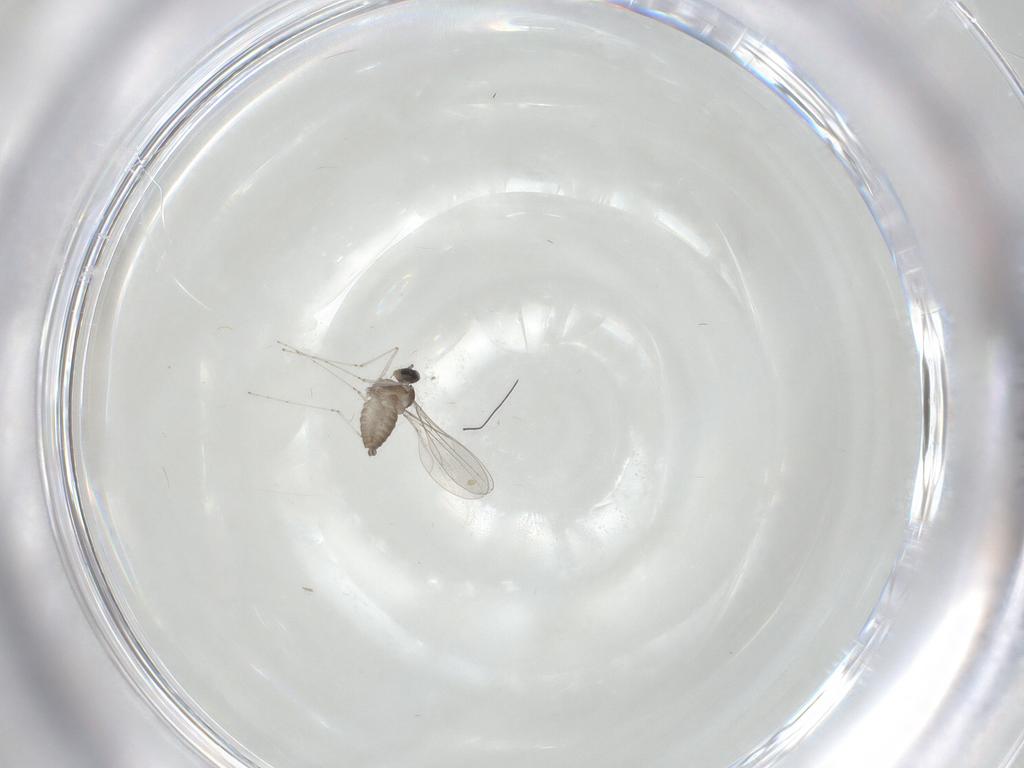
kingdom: Animalia
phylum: Arthropoda
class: Insecta
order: Diptera
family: Cecidomyiidae
